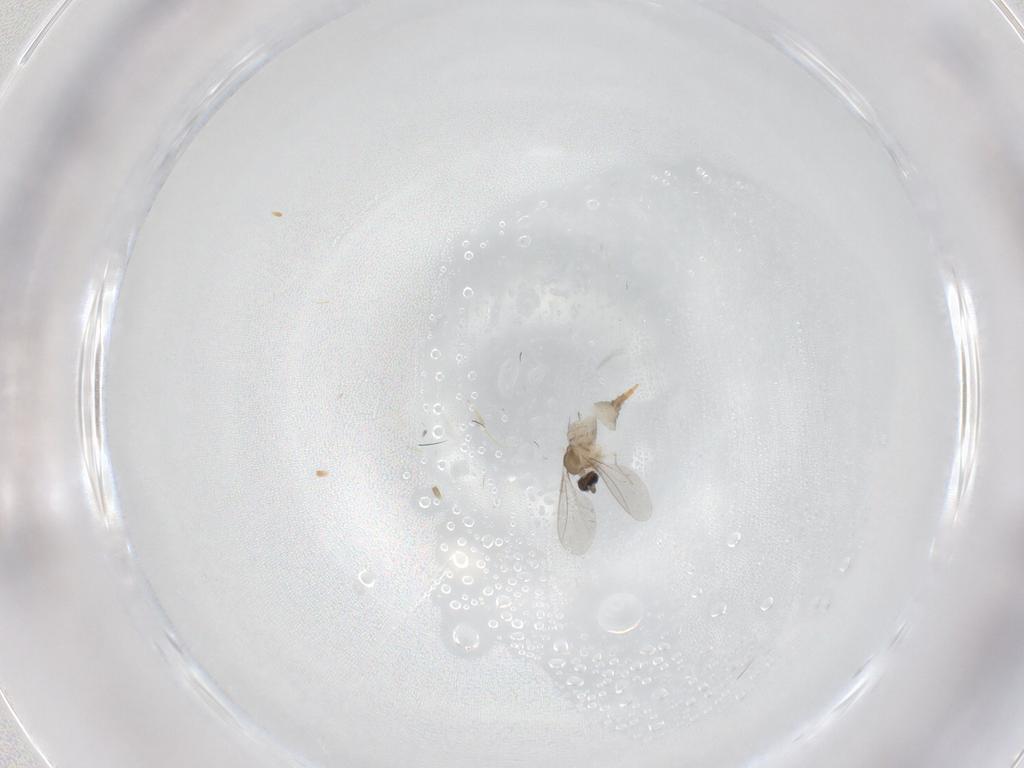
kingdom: Animalia
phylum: Arthropoda
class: Insecta
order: Diptera
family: Cecidomyiidae
